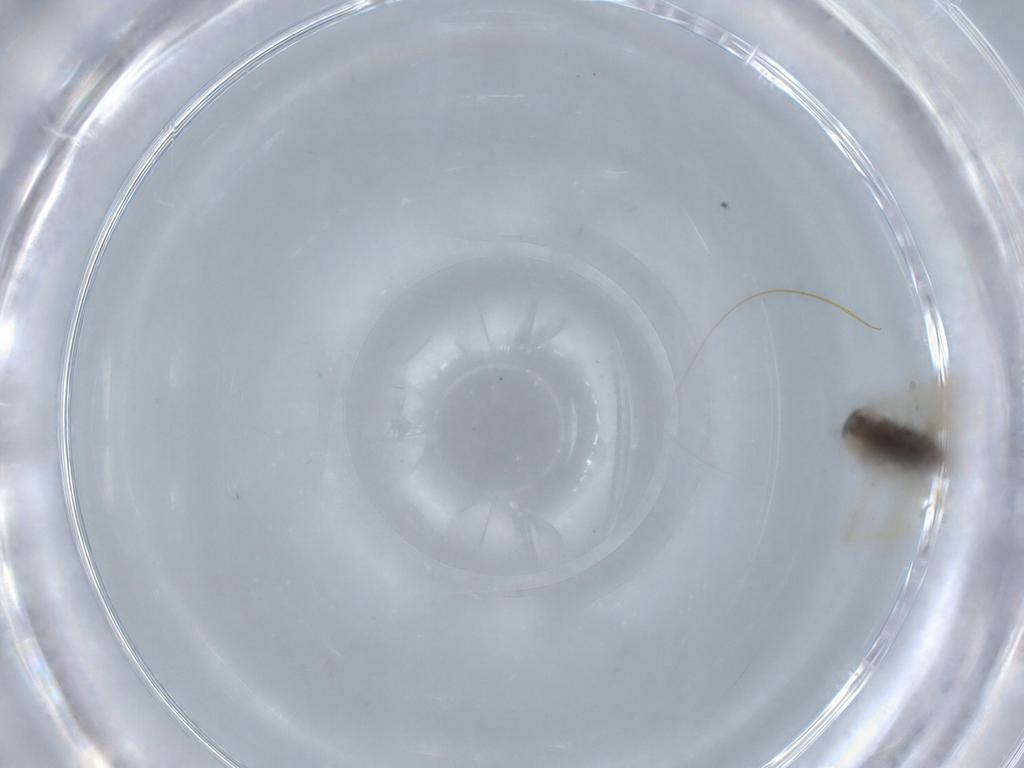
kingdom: Animalia
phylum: Arthropoda
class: Insecta
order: Diptera
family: Chironomidae
